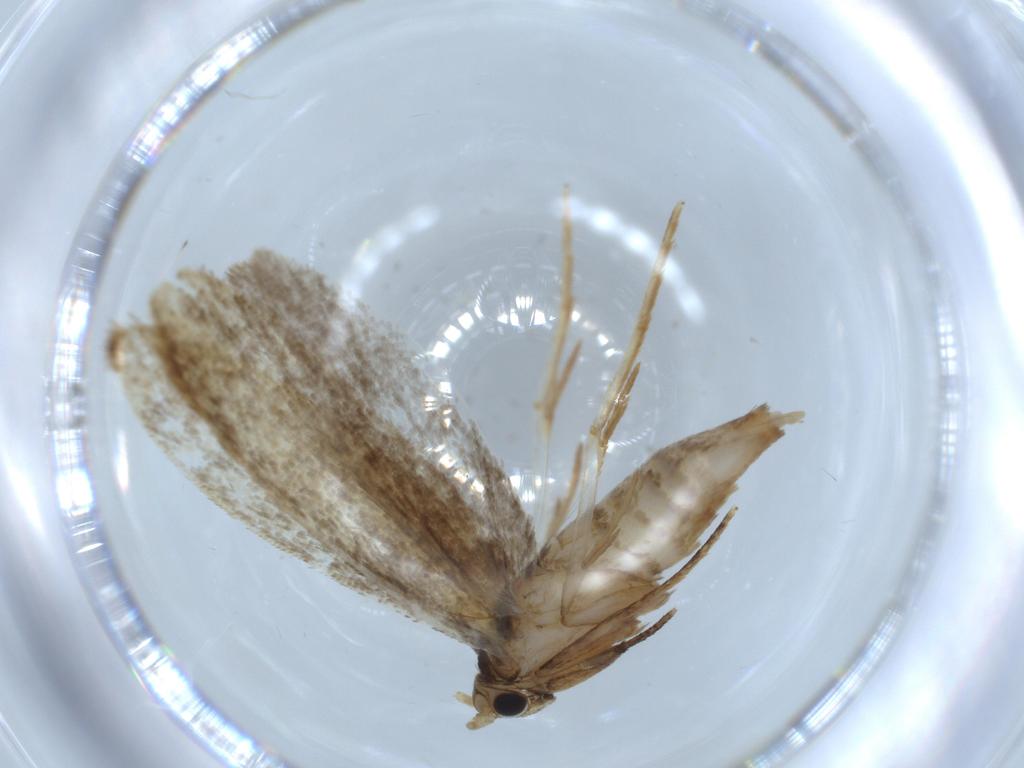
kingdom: Animalia
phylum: Arthropoda
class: Insecta
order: Lepidoptera
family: Tineidae
